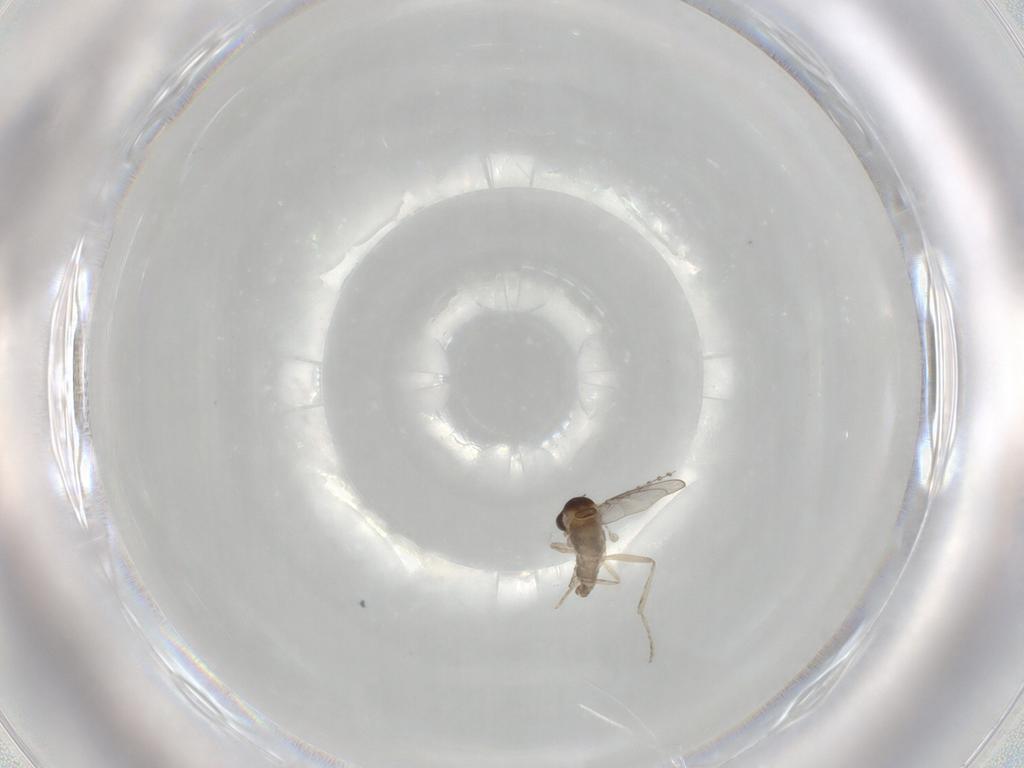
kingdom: Animalia
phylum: Arthropoda
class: Insecta
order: Diptera
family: Cecidomyiidae
